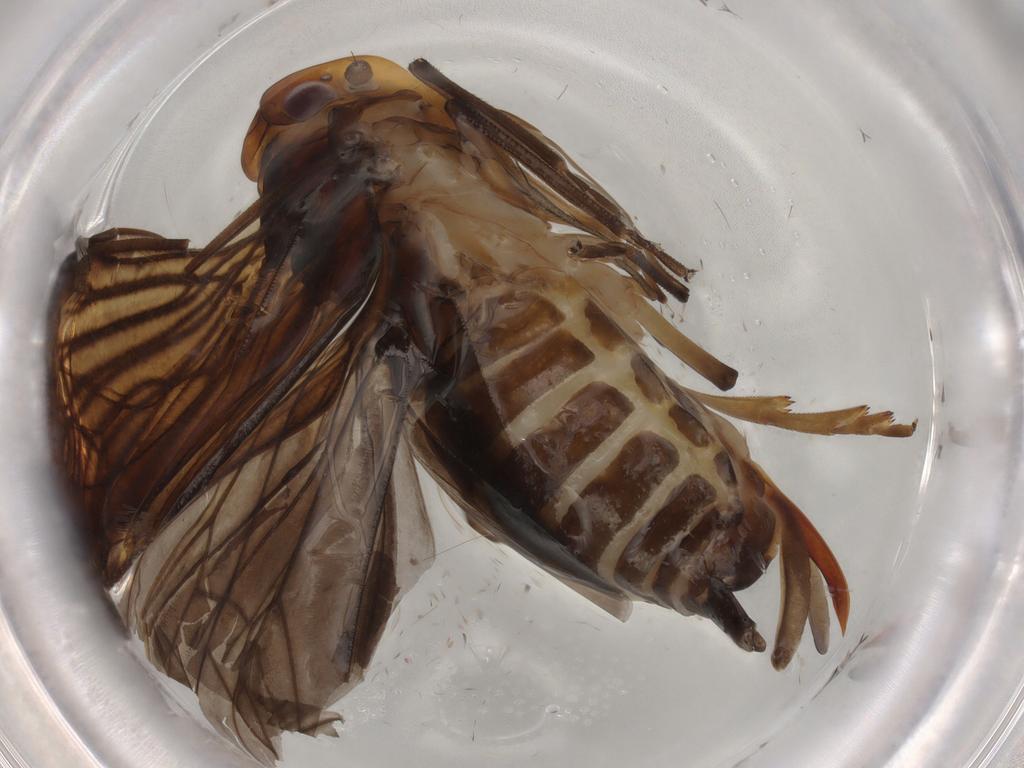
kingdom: Animalia
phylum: Arthropoda
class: Insecta
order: Hemiptera
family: Cixiidae
